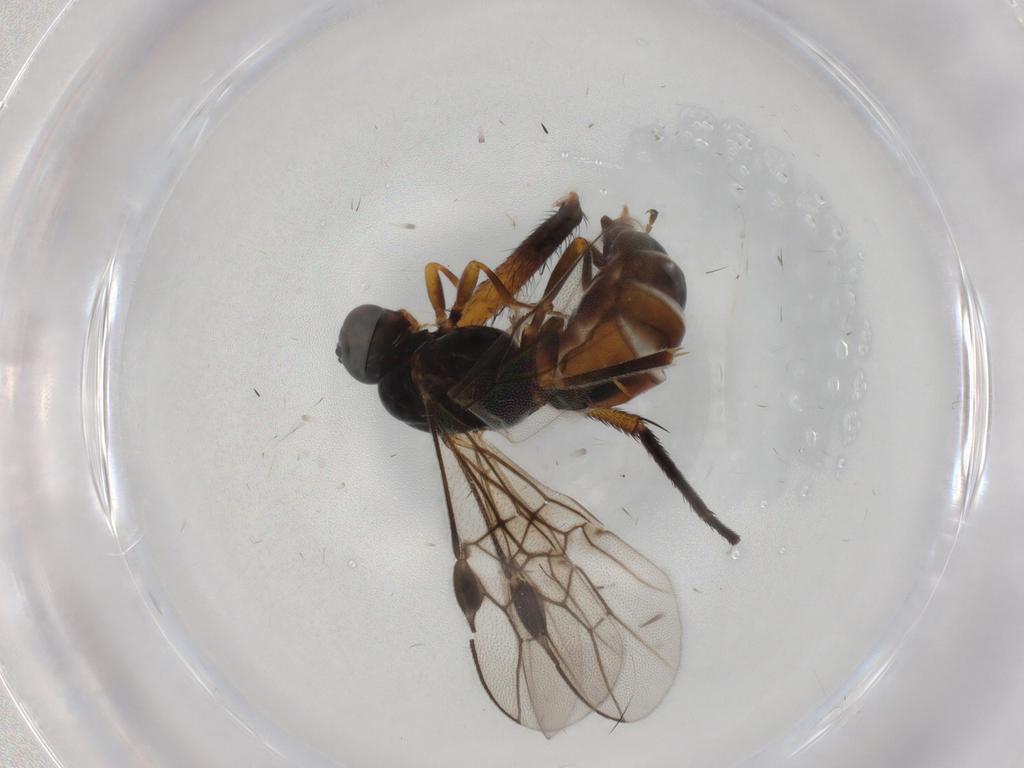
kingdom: Animalia
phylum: Arthropoda
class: Insecta
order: Hymenoptera
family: Braconidae
